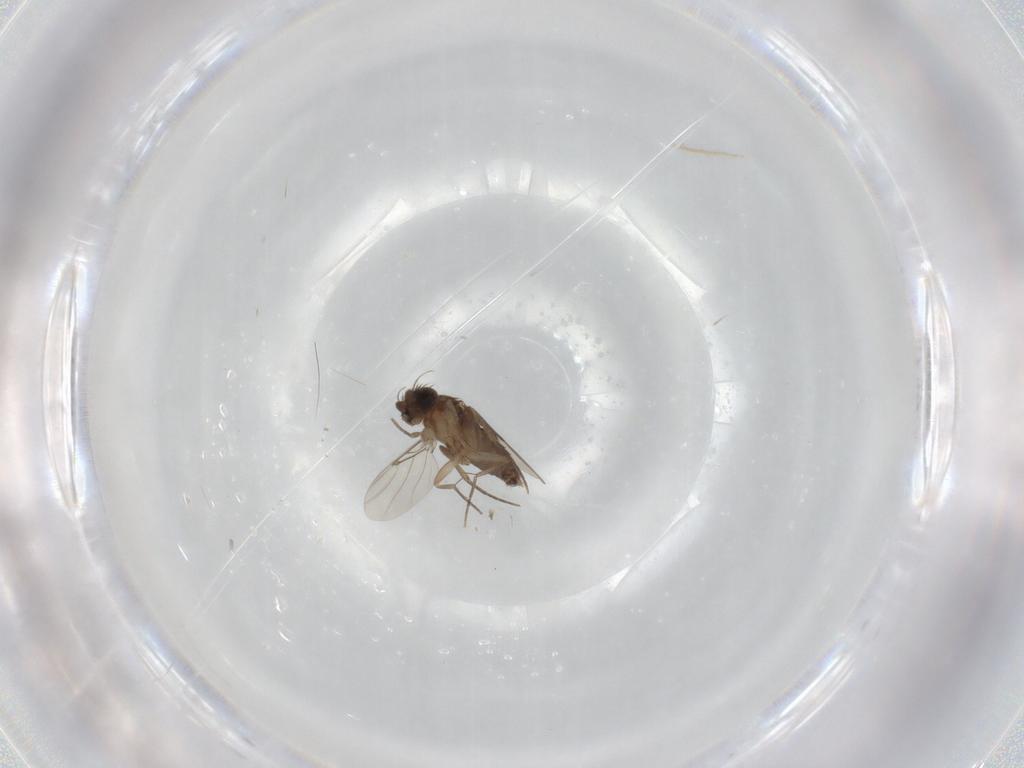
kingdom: Animalia
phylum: Arthropoda
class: Insecta
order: Diptera
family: Phoridae
